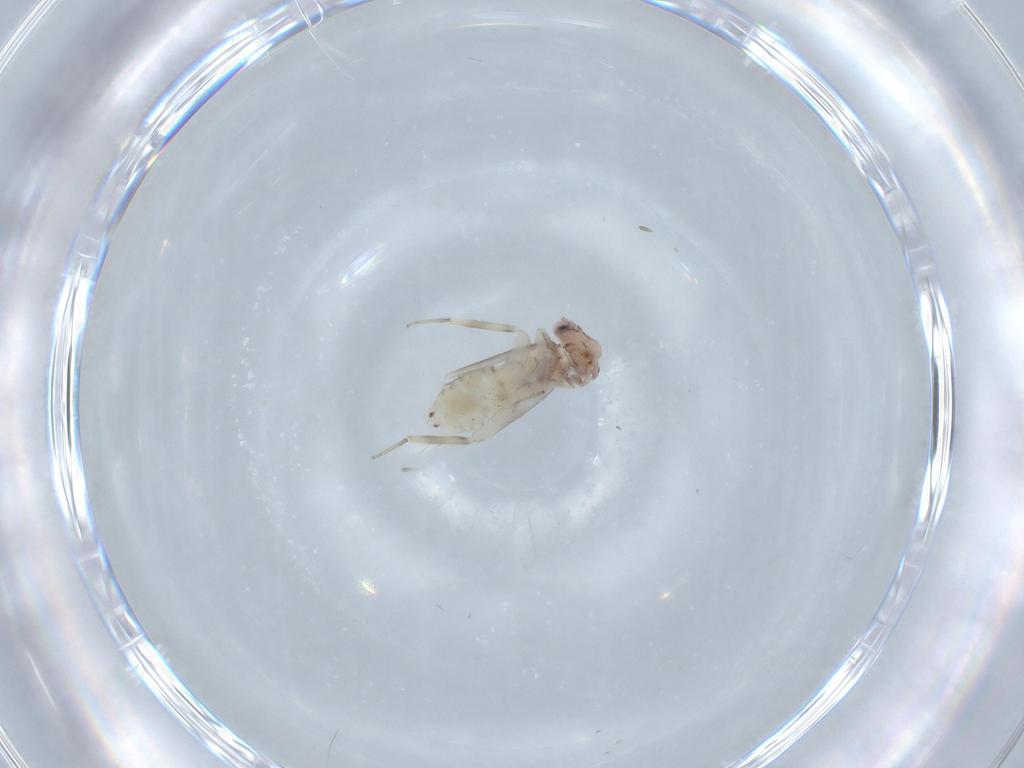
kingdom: Animalia
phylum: Arthropoda
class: Insecta
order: Psocodea
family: Lepidopsocidae
